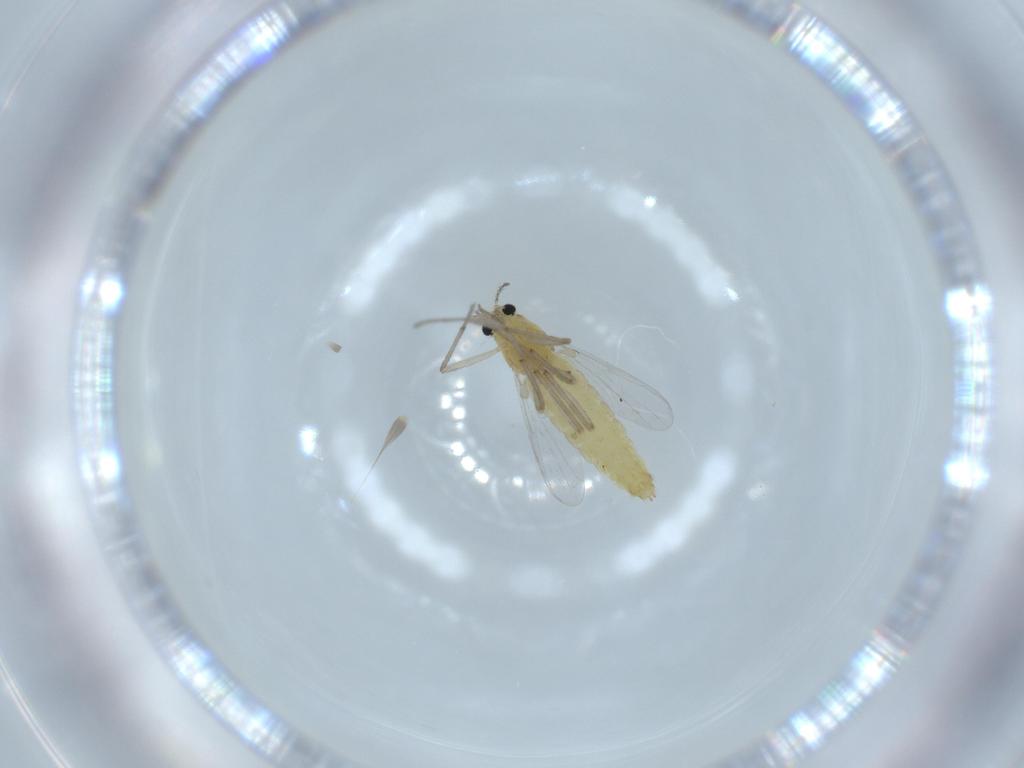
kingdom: Animalia
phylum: Arthropoda
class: Insecta
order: Diptera
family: Chironomidae
